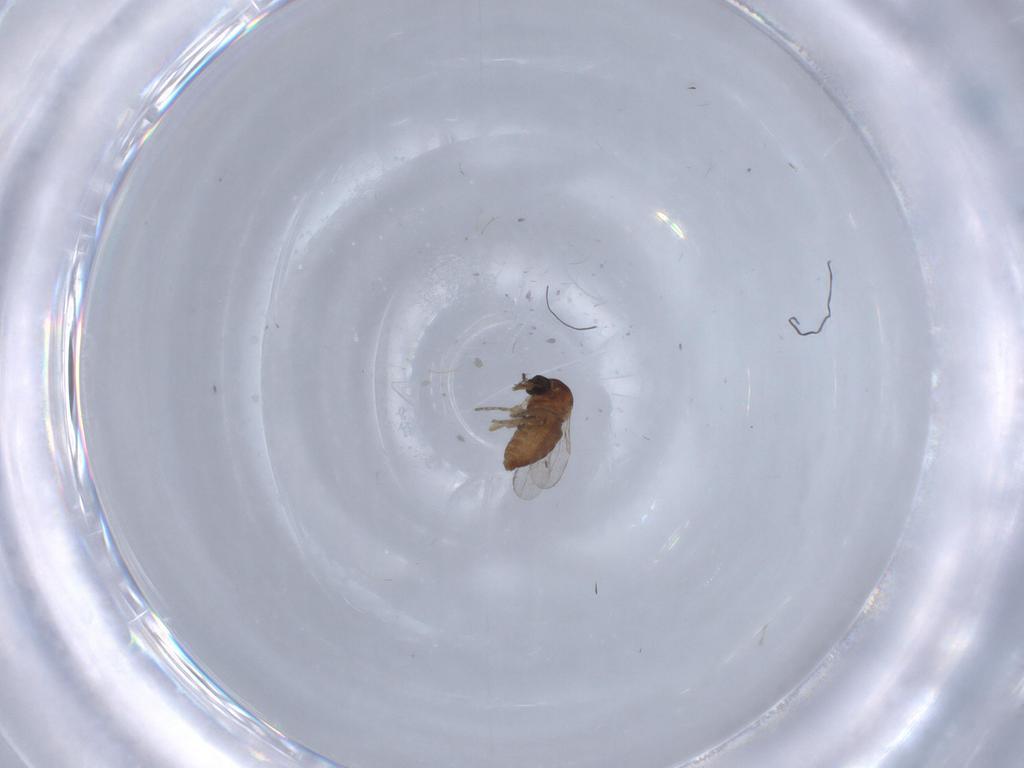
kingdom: Animalia
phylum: Arthropoda
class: Insecta
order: Diptera
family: Ceratopogonidae
